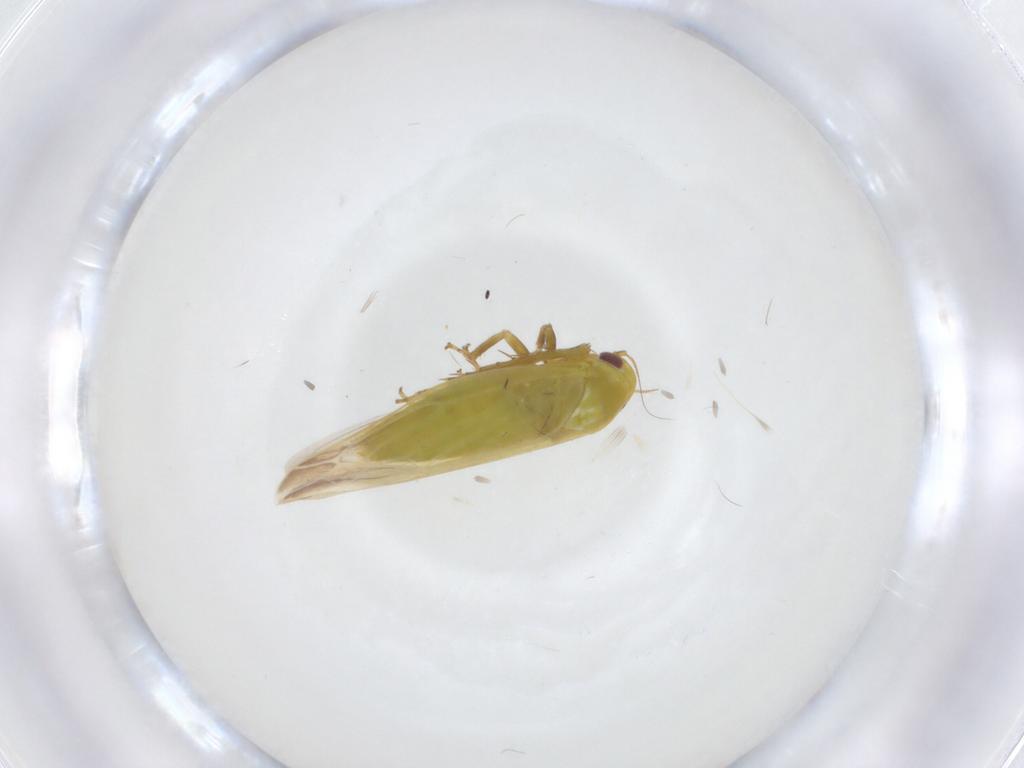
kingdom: Animalia
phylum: Arthropoda
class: Insecta
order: Hemiptera
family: Cicadellidae
